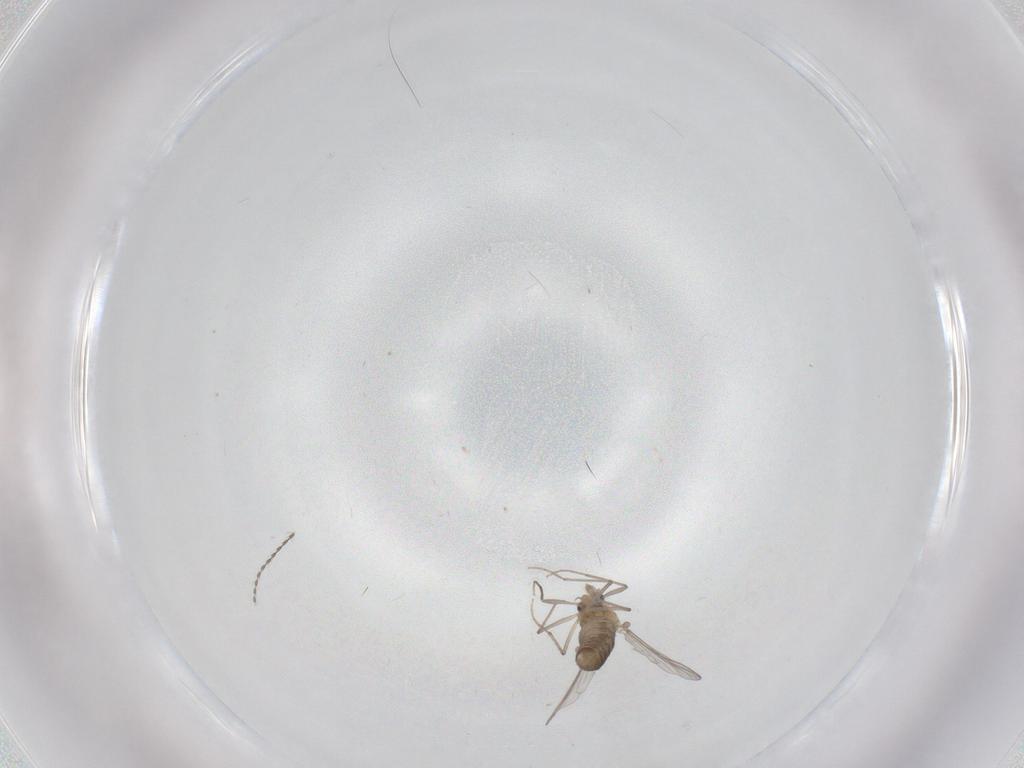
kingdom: Animalia
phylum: Arthropoda
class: Insecta
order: Diptera
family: Chironomidae
